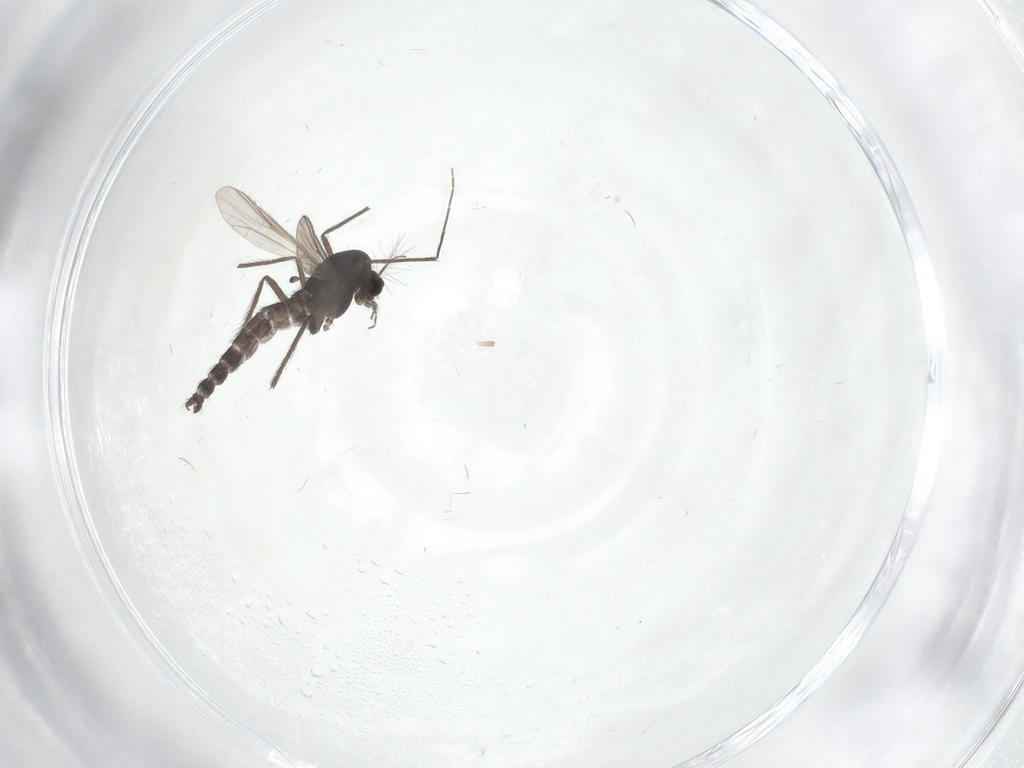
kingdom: Animalia
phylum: Arthropoda
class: Insecta
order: Diptera
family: Chironomidae
